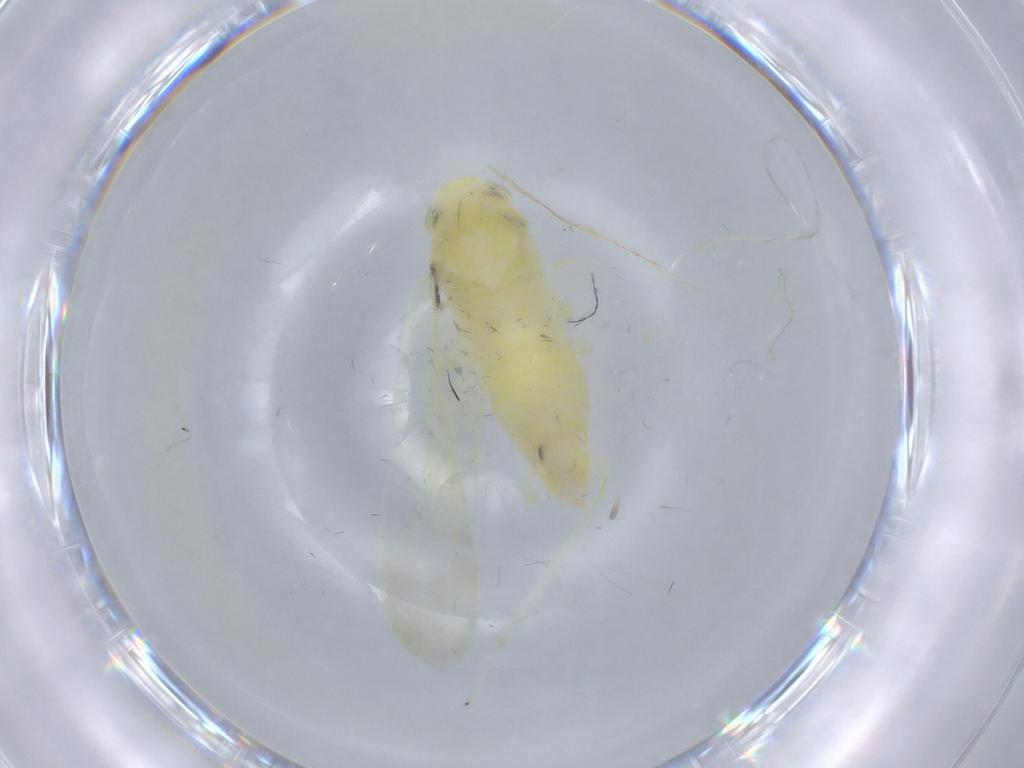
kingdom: Animalia
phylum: Arthropoda
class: Insecta
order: Hemiptera
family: Cicadellidae
